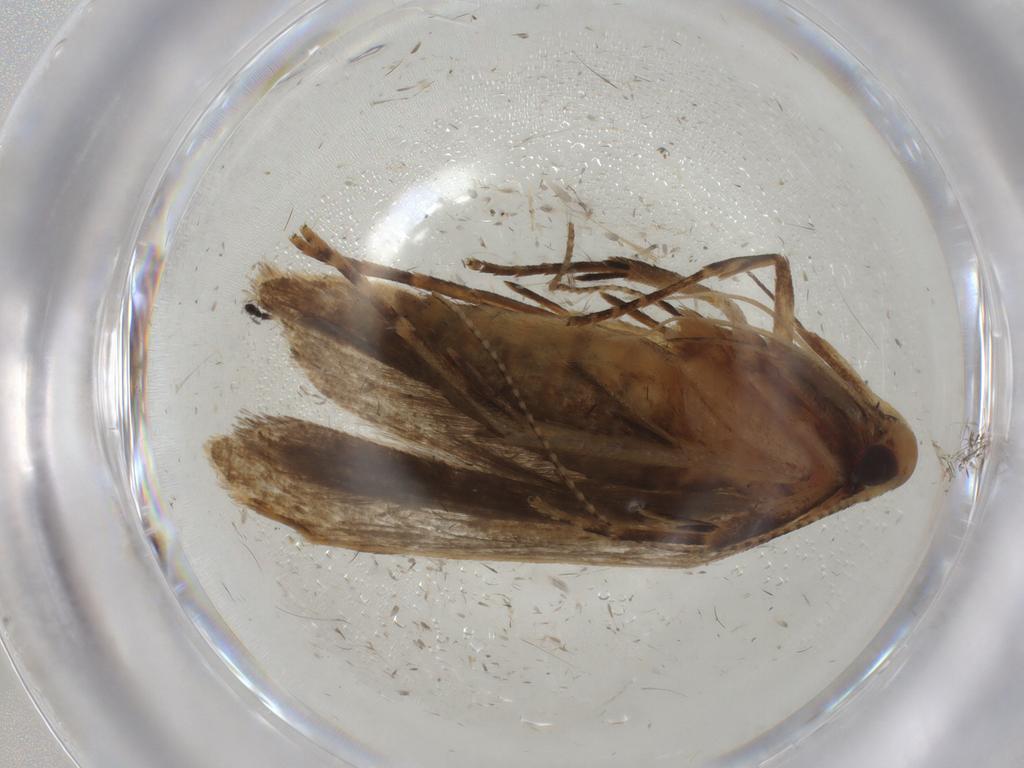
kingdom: Animalia
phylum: Arthropoda
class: Insecta
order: Lepidoptera
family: Gelechiidae
